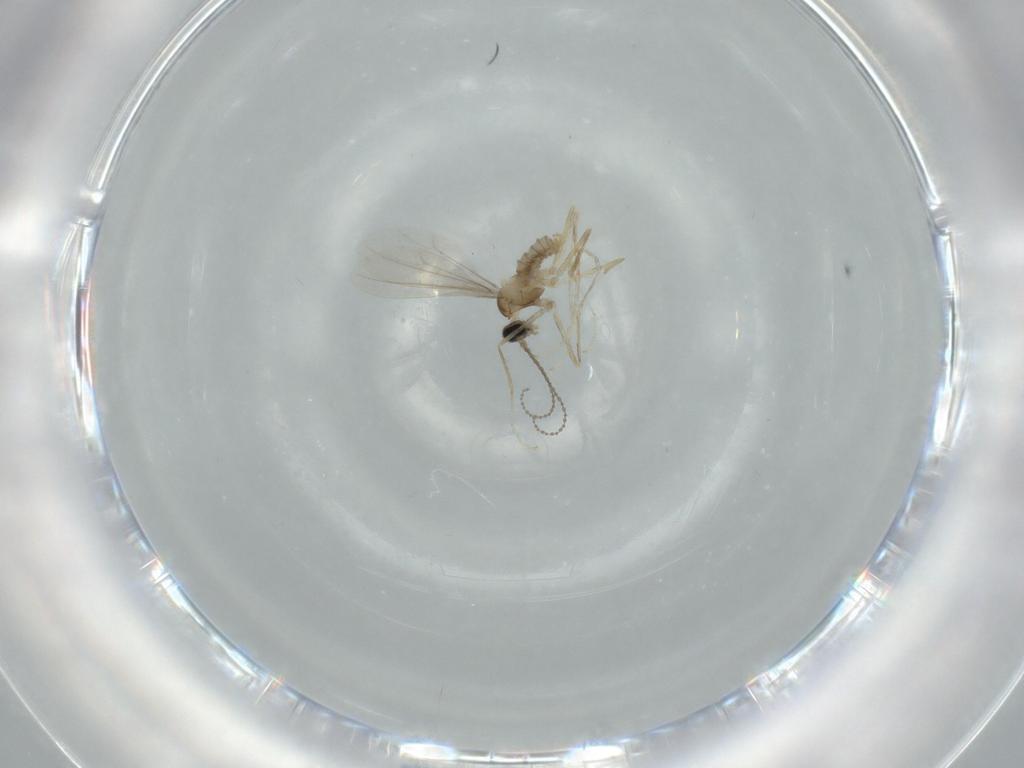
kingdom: Animalia
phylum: Arthropoda
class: Insecta
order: Diptera
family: Cecidomyiidae
